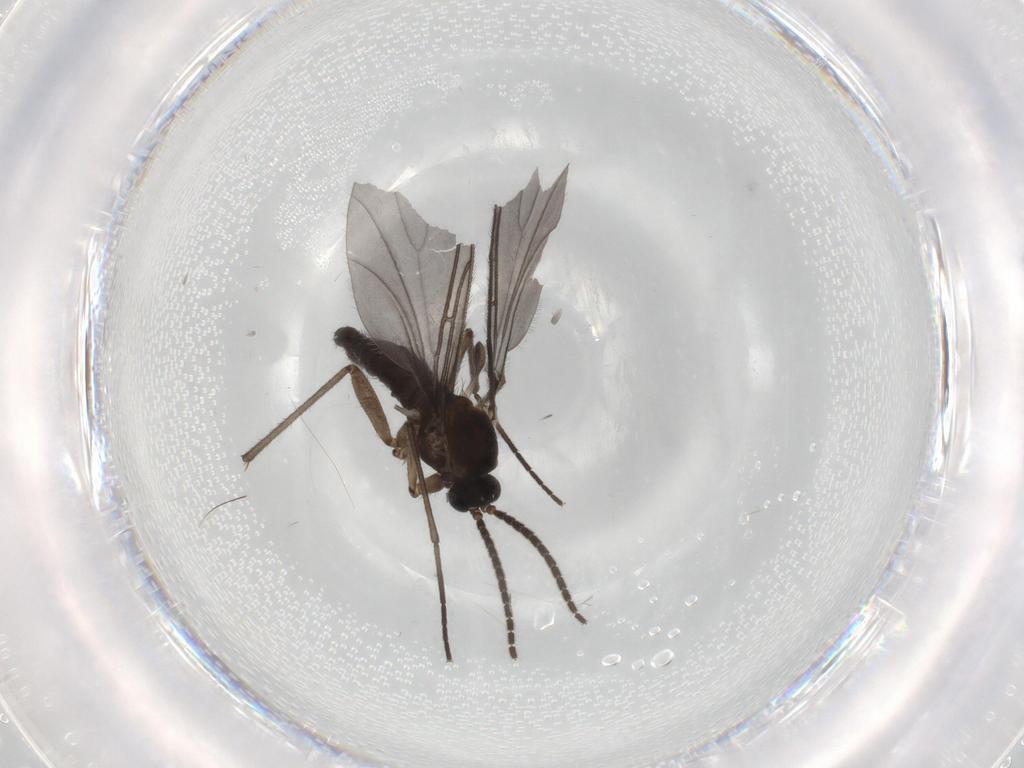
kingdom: Animalia
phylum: Arthropoda
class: Insecta
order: Diptera
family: Sciaridae
